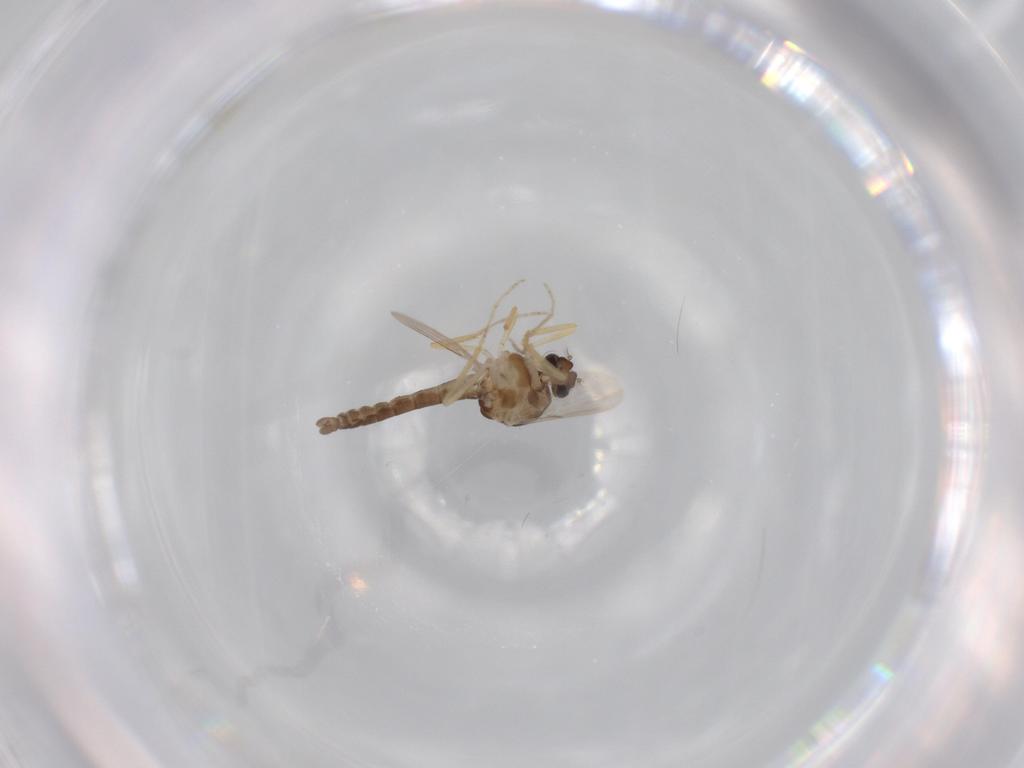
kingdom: Animalia
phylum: Arthropoda
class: Insecta
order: Diptera
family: Ceratopogonidae
